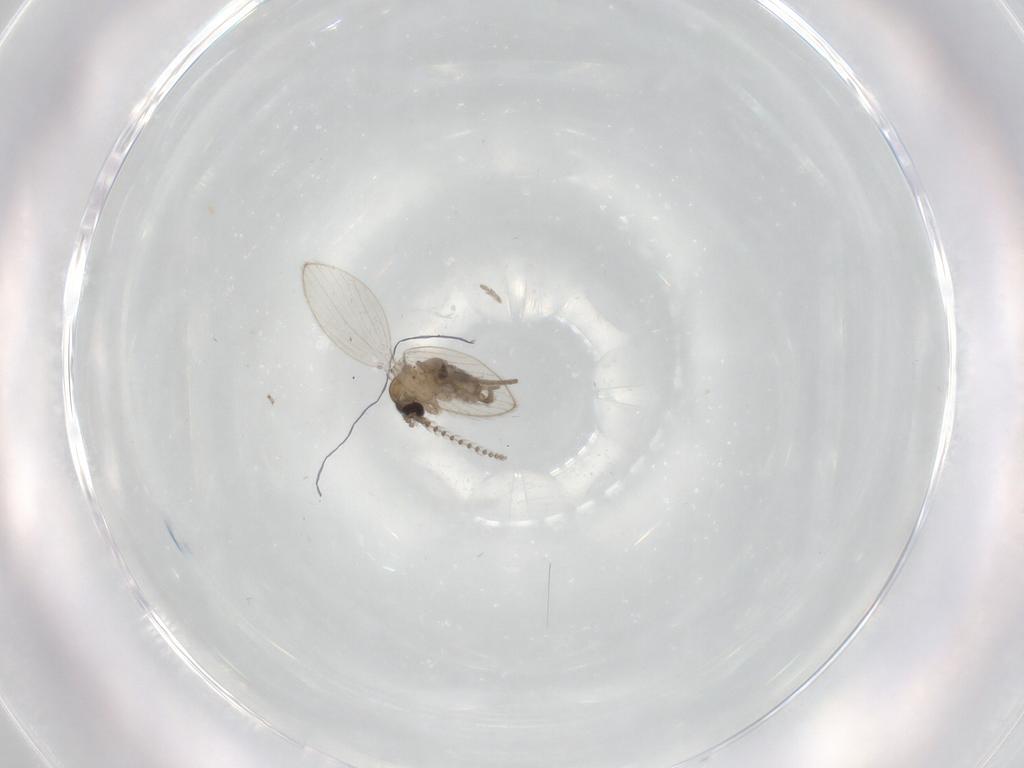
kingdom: Animalia
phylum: Arthropoda
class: Insecta
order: Diptera
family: Psychodidae
